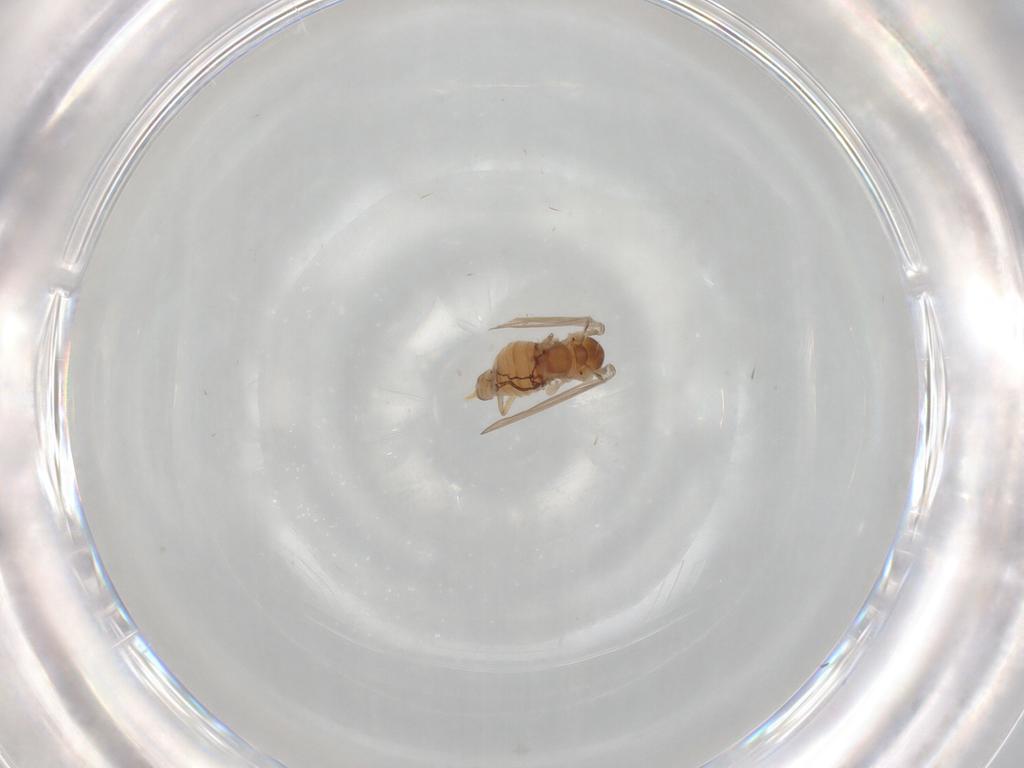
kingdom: Animalia
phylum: Arthropoda
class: Insecta
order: Diptera
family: Psychodidae
